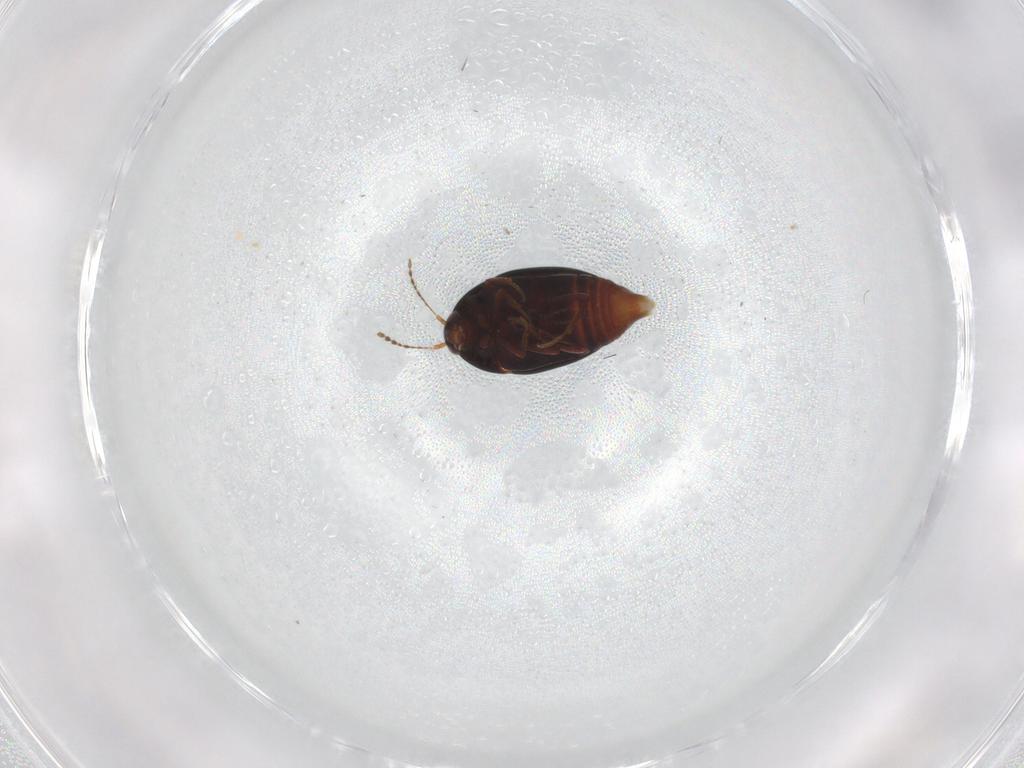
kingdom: Animalia
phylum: Arthropoda
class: Insecta
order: Coleoptera
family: Staphylinidae
